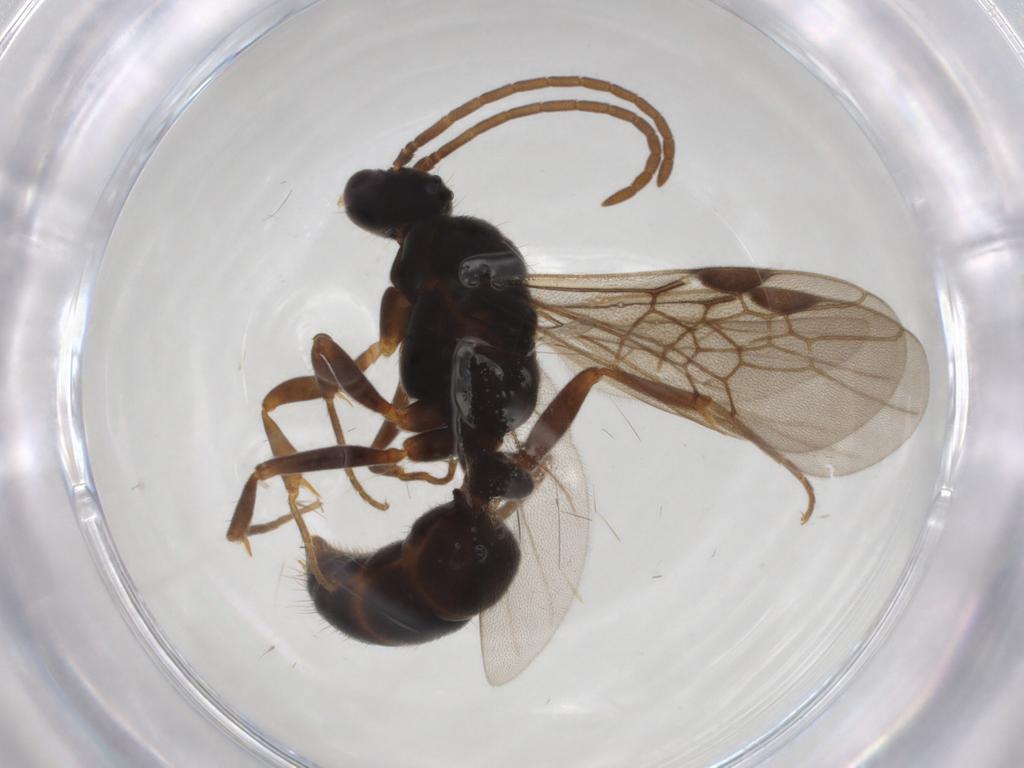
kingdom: Animalia
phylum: Arthropoda
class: Insecta
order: Hymenoptera
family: Formicidae
